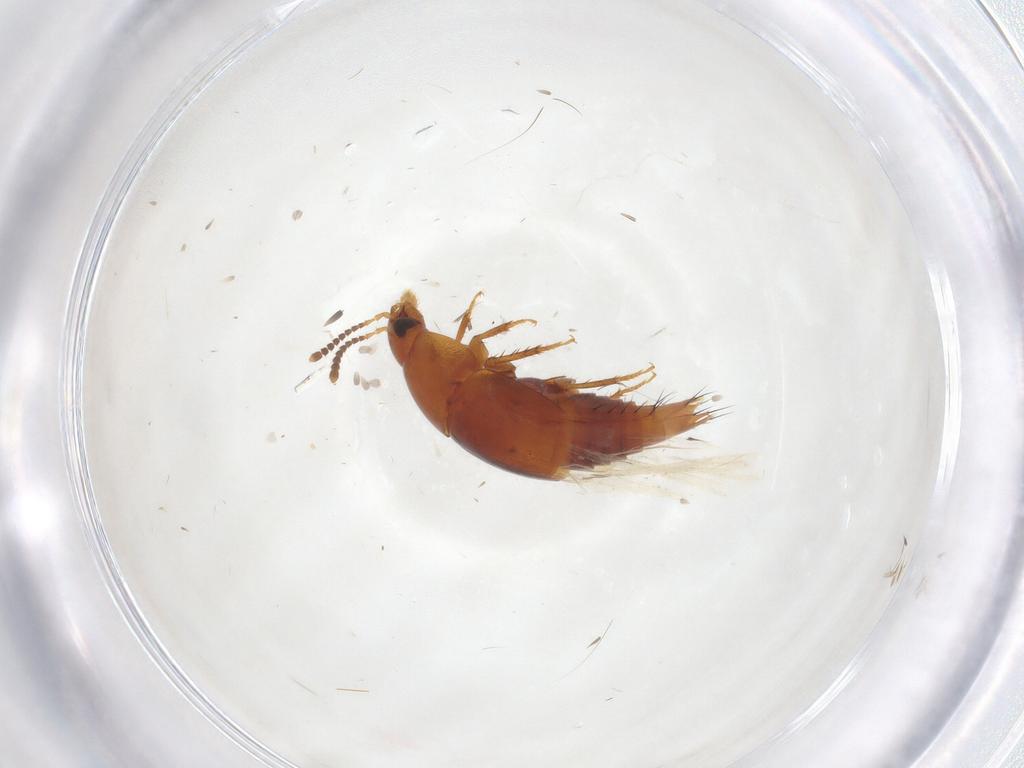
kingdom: Animalia
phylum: Arthropoda
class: Insecta
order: Coleoptera
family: Staphylinidae
